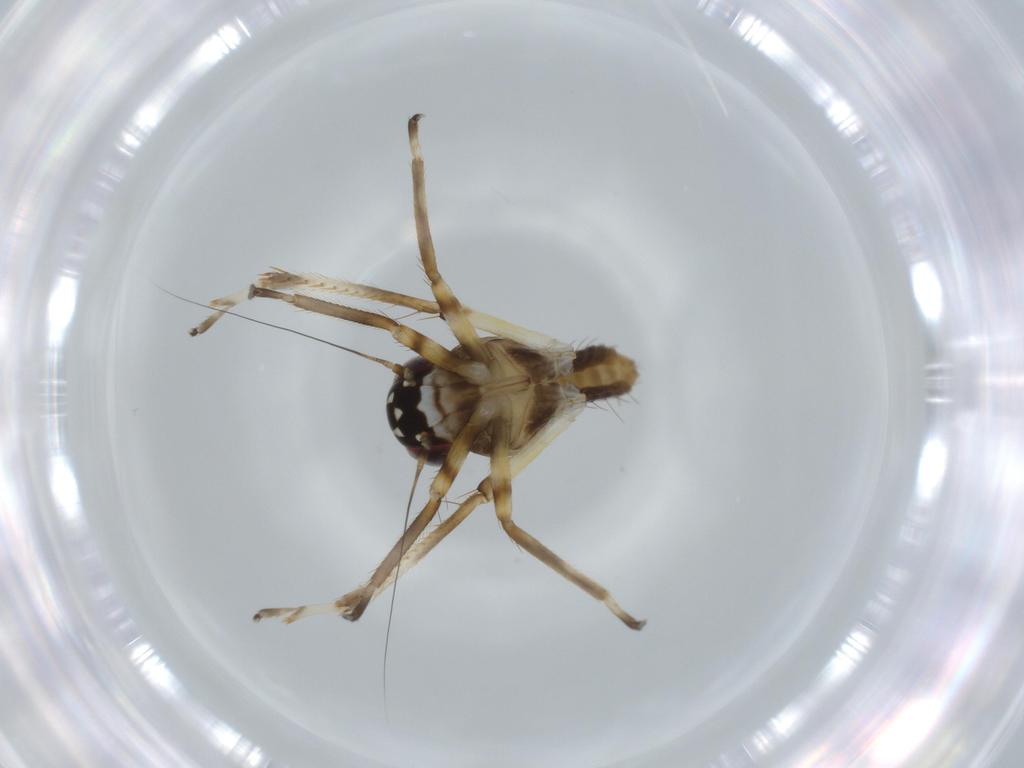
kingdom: Animalia
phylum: Arthropoda
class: Insecta
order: Hemiptera
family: Cicadellidae
